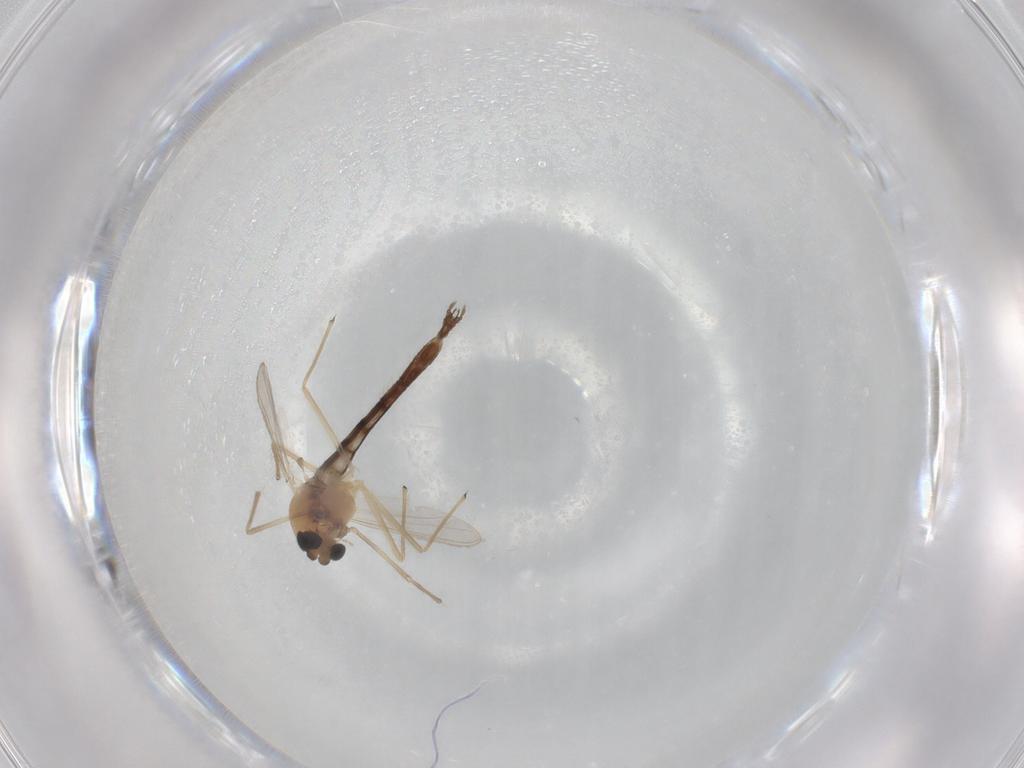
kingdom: Animalia
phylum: Arthropoda
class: Insecta
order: Diptera
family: Chironomidae
